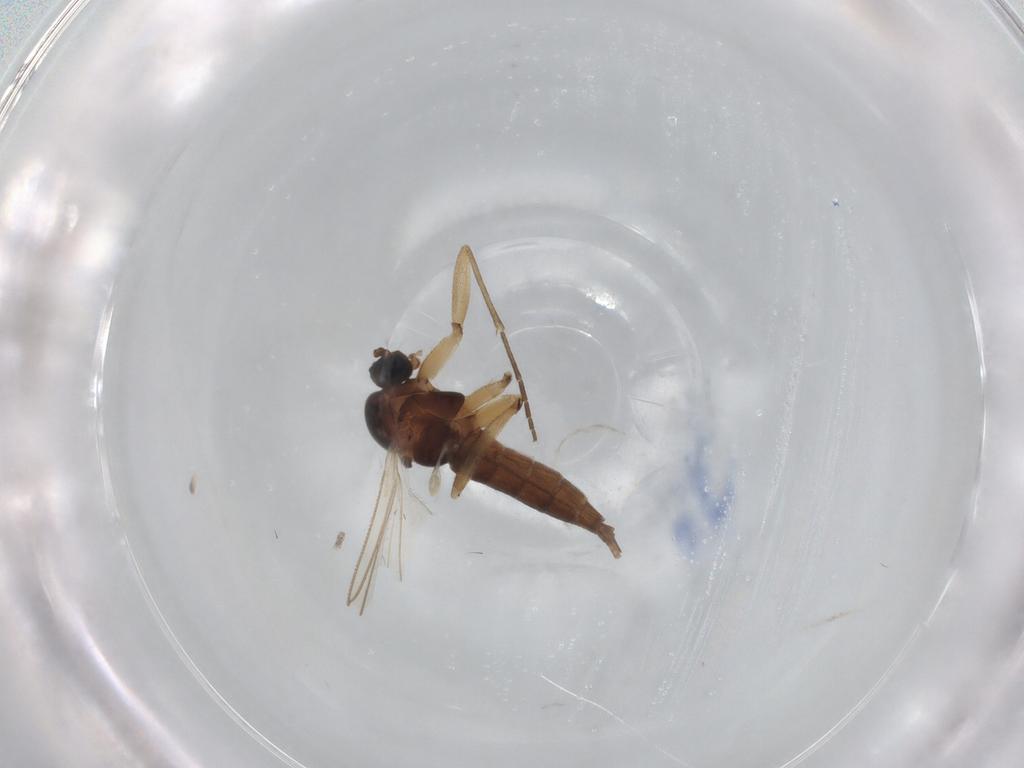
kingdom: Animalia
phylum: Arthropoda
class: Insecta
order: Diptera
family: Sciaridae
